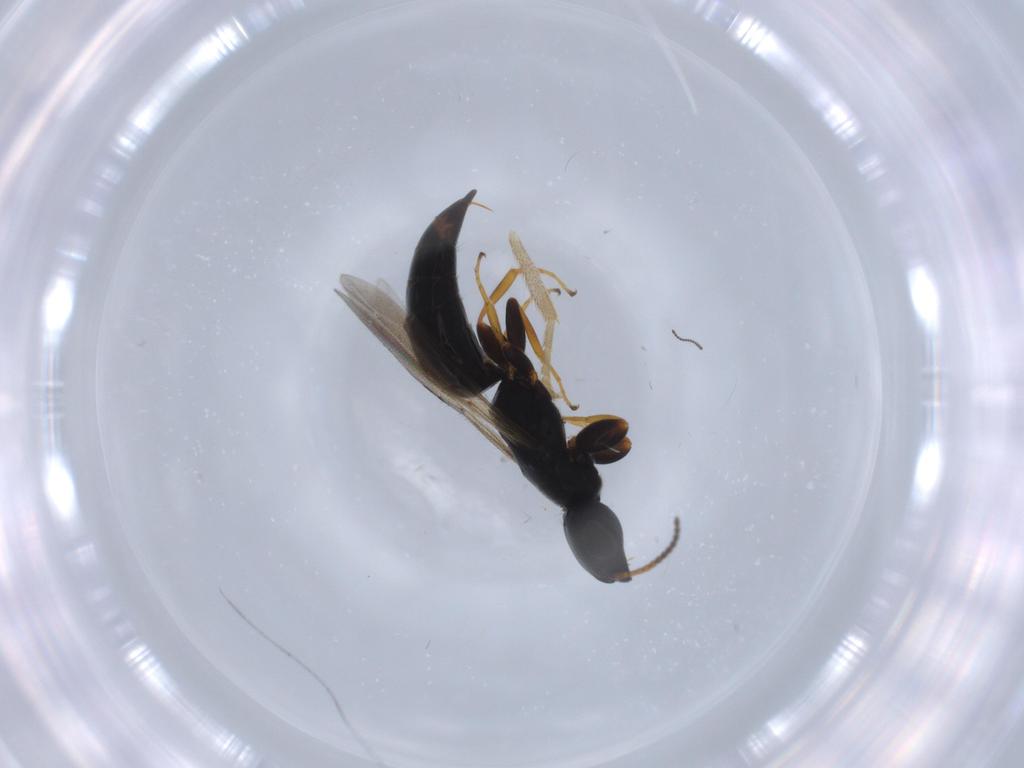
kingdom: Animalia
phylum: Arthropoda
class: Insecta
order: Hymenoptera
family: Bethylidae
